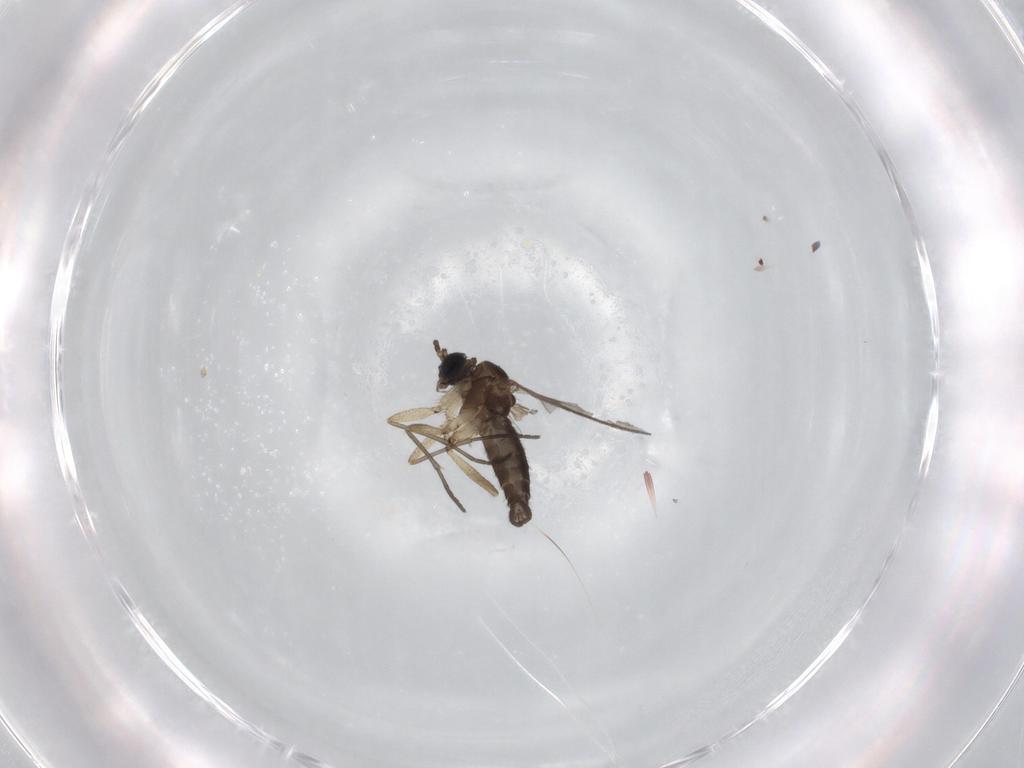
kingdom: Animalia
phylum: Arthropoda
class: Insecta
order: Diptera
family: Sciaridae
